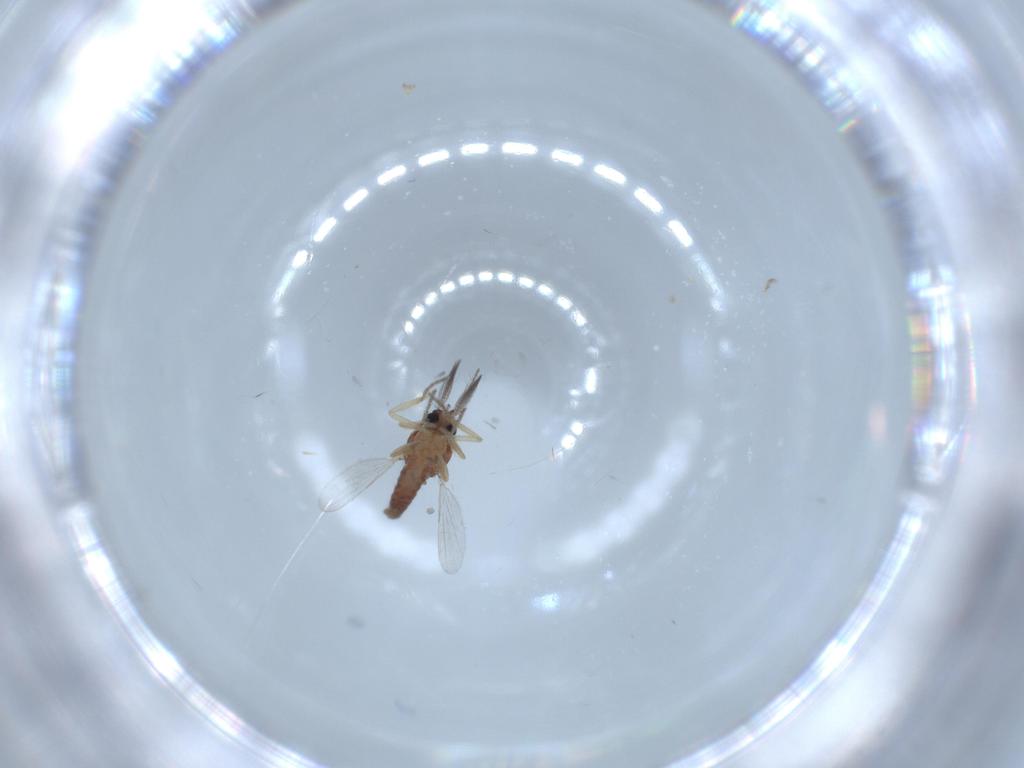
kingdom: Animalia
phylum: Arthropoda
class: Insecta
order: Diptera
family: Ceratopogonidae
